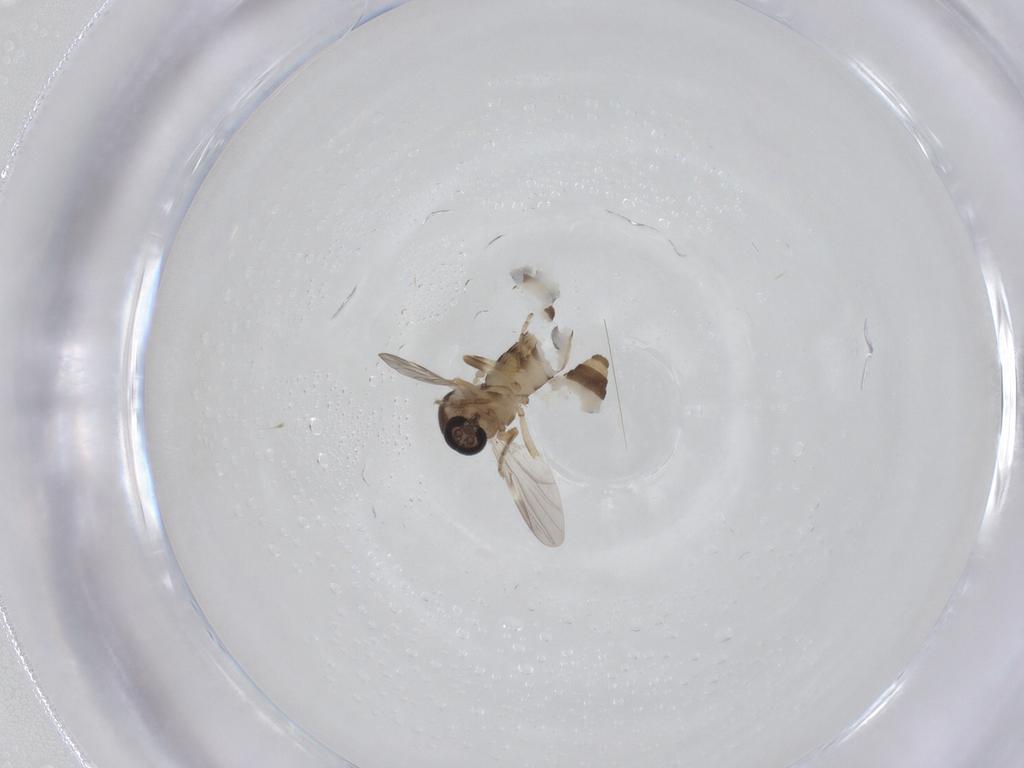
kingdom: Animalia
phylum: Arthropoda
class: Insecta
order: Diptera
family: Ceratopogonidae
